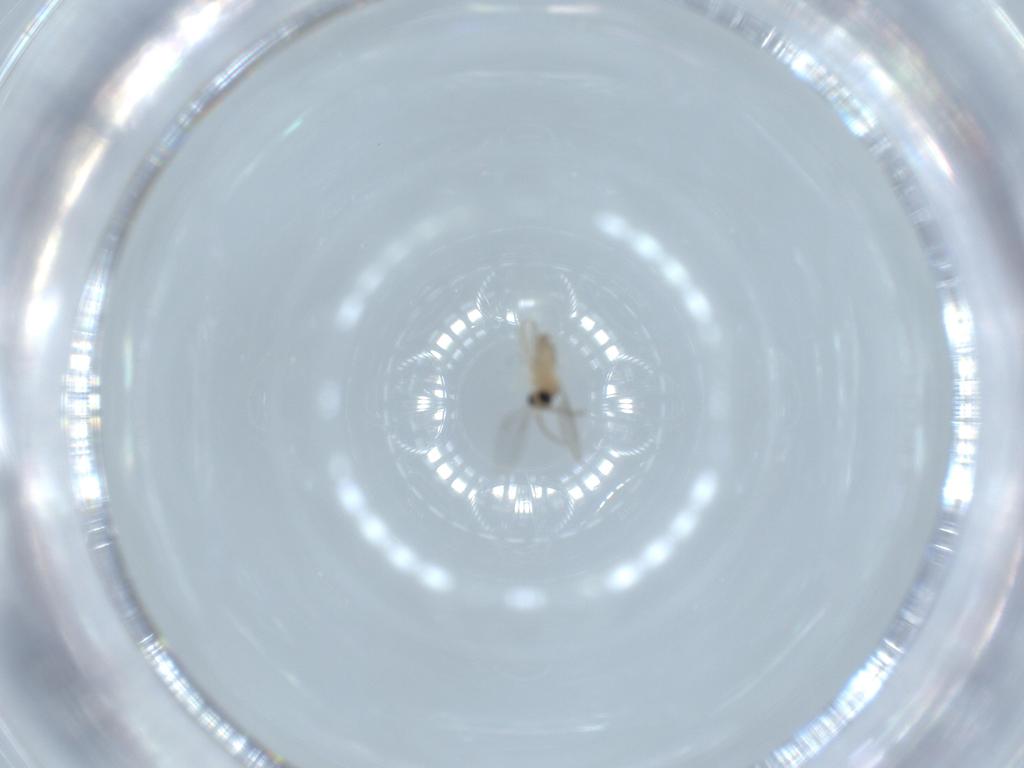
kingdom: Animalia
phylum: Arthropoda
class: Insecta
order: Diptera
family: Cecidomyiidae
